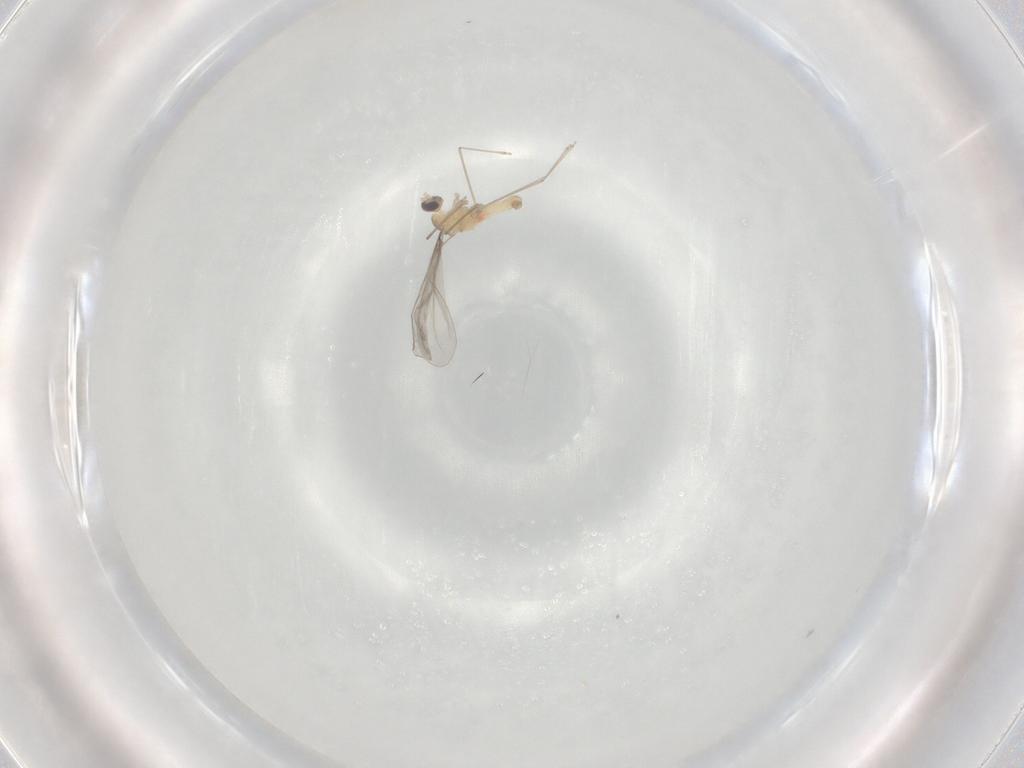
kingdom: Animalia
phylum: Arthropoda
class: Insecta
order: Diptera
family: Cecidomyiidae
